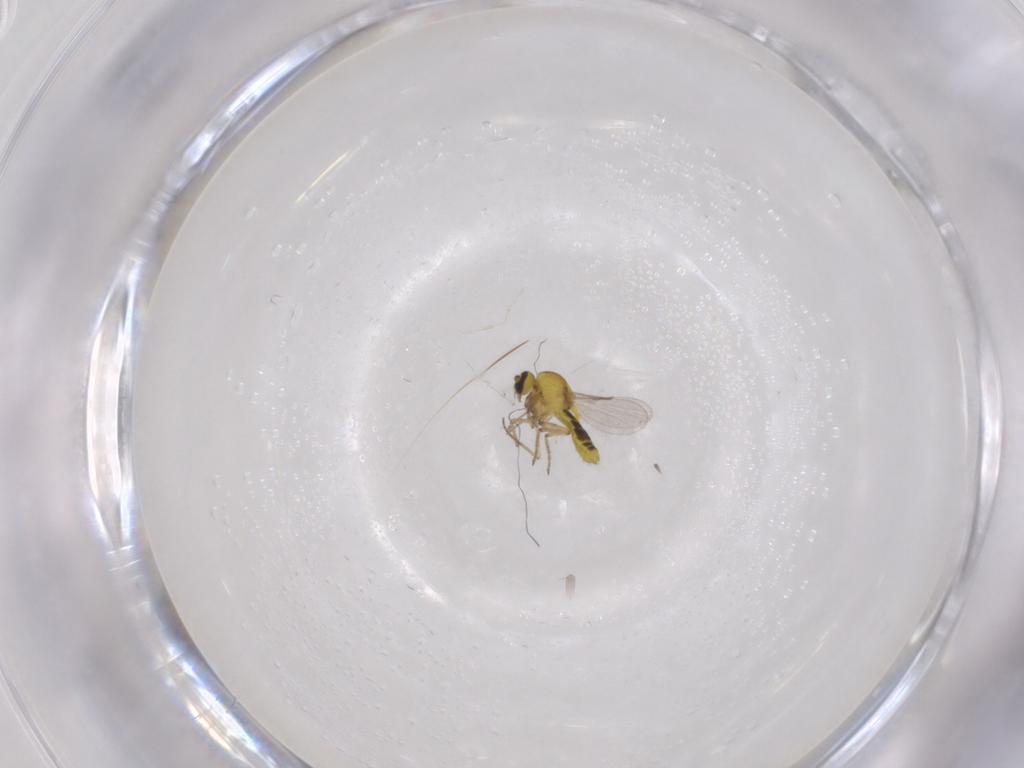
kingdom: Animalia
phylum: Arthropoda
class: Insecta
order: Diptera
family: Ceratopogonidae
